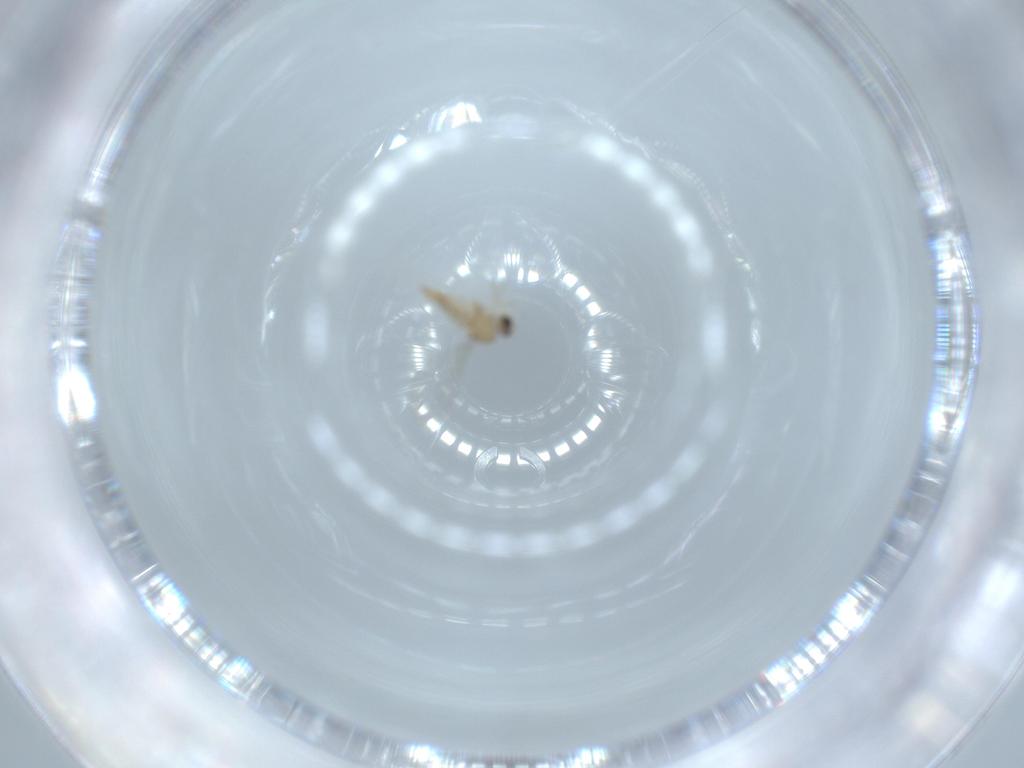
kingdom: Animalia
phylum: Arthropoda
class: Insecta
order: Diptera
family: Cecidomyiidae
